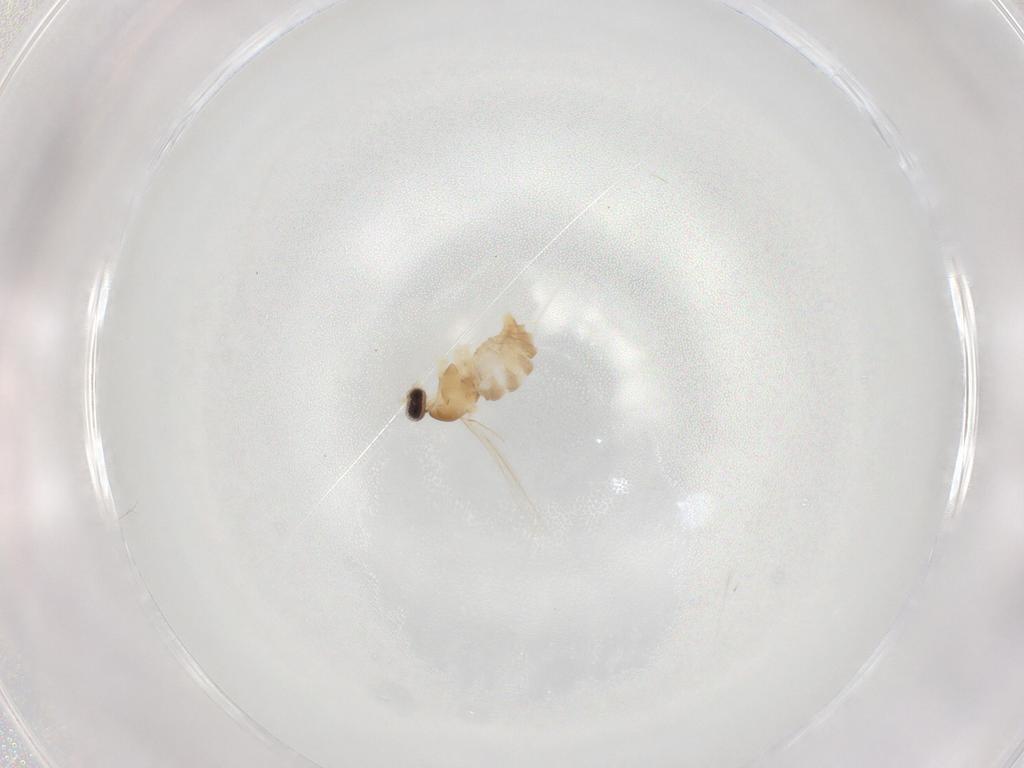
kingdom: Animalia
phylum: Arthropoda
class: Insecta
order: Diptera
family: Cecidomyiidae
